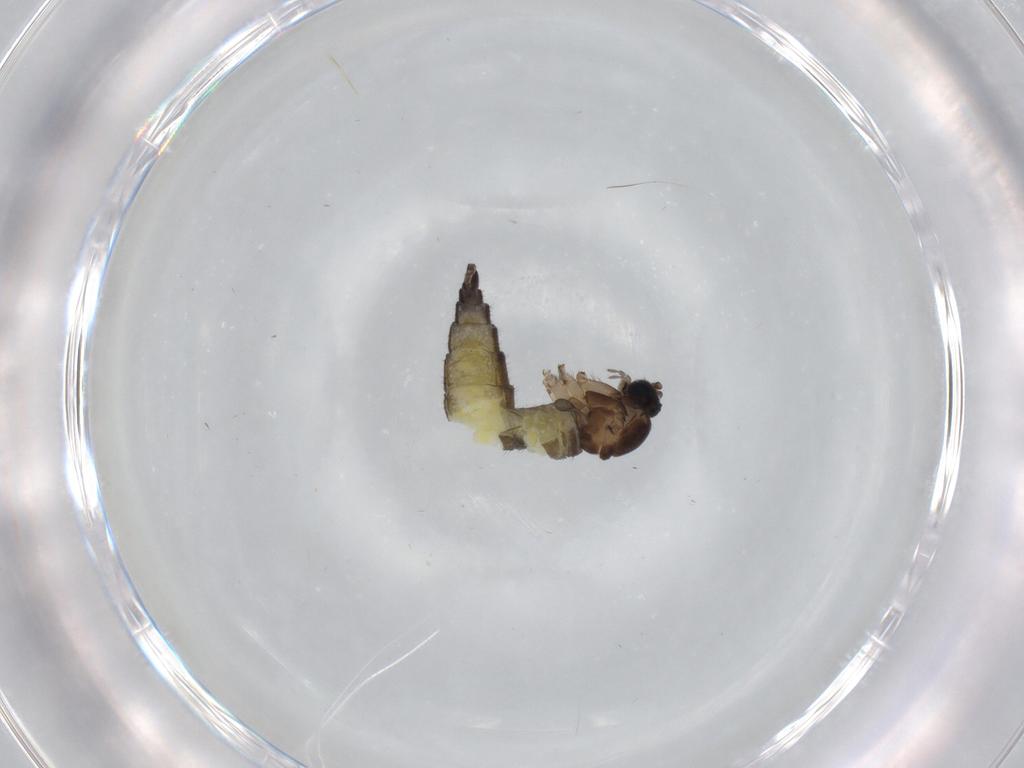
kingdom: Animalia
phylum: Arthropoda
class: Insecta
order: Diptera
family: Sciaridae
